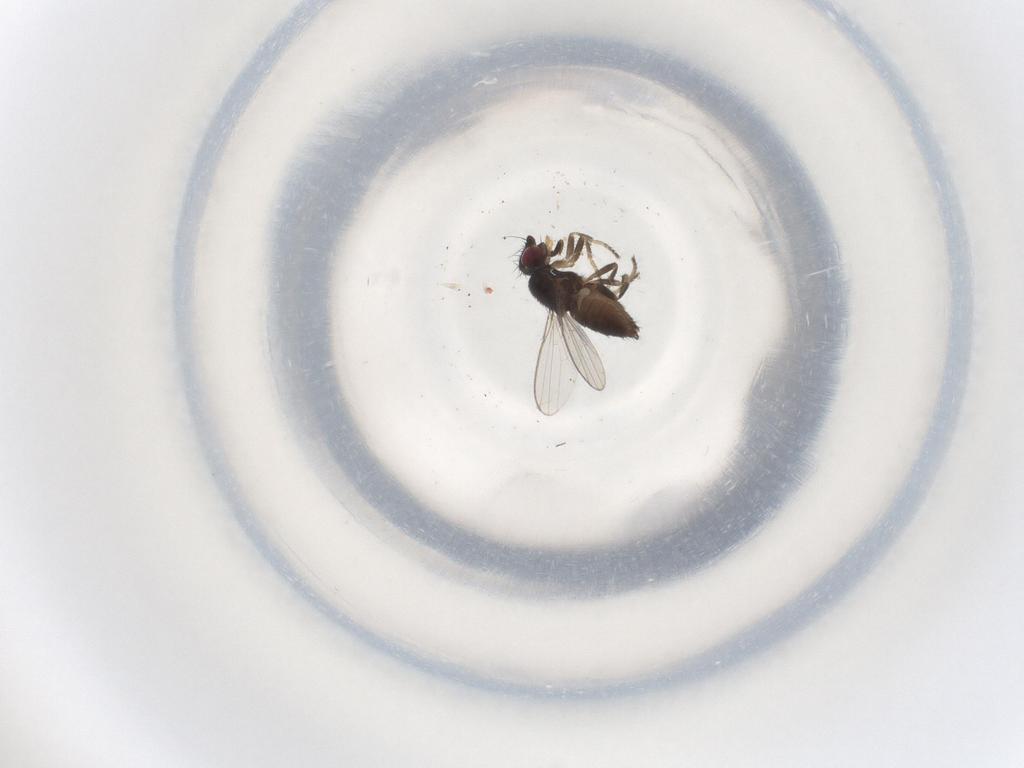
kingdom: Animalia
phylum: Arthropoda
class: Insecta
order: Diptera
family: Milichiidae
